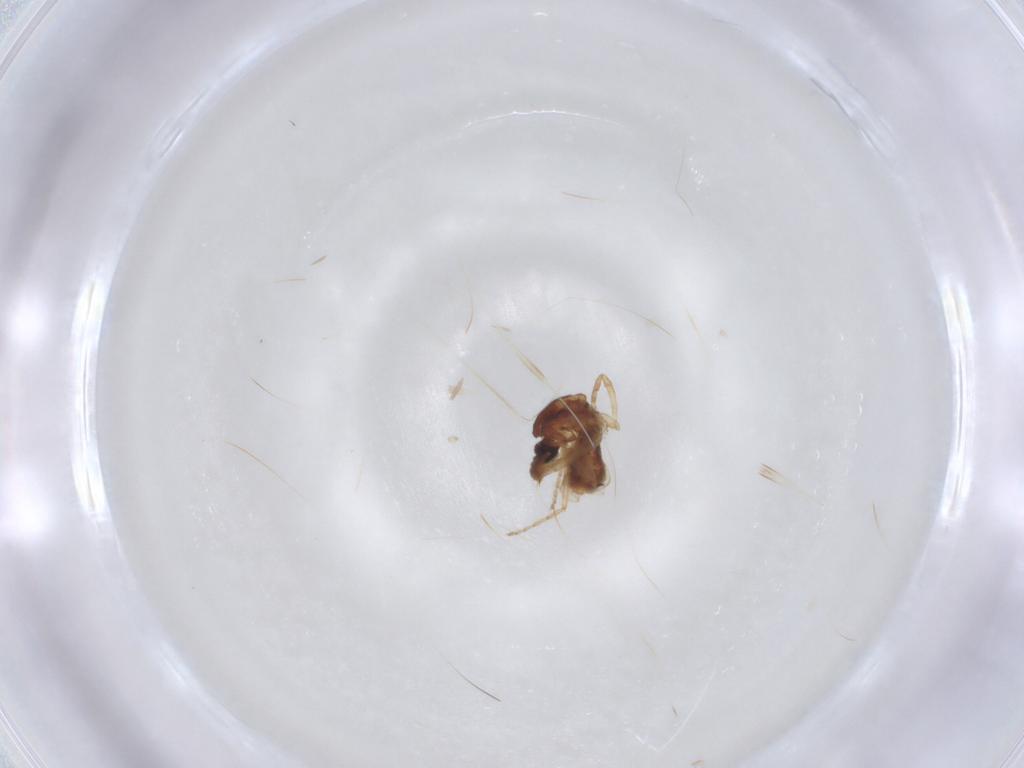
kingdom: Animalia
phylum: Arthropoda
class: Insecta
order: Diptera
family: Ceratopogonidae
